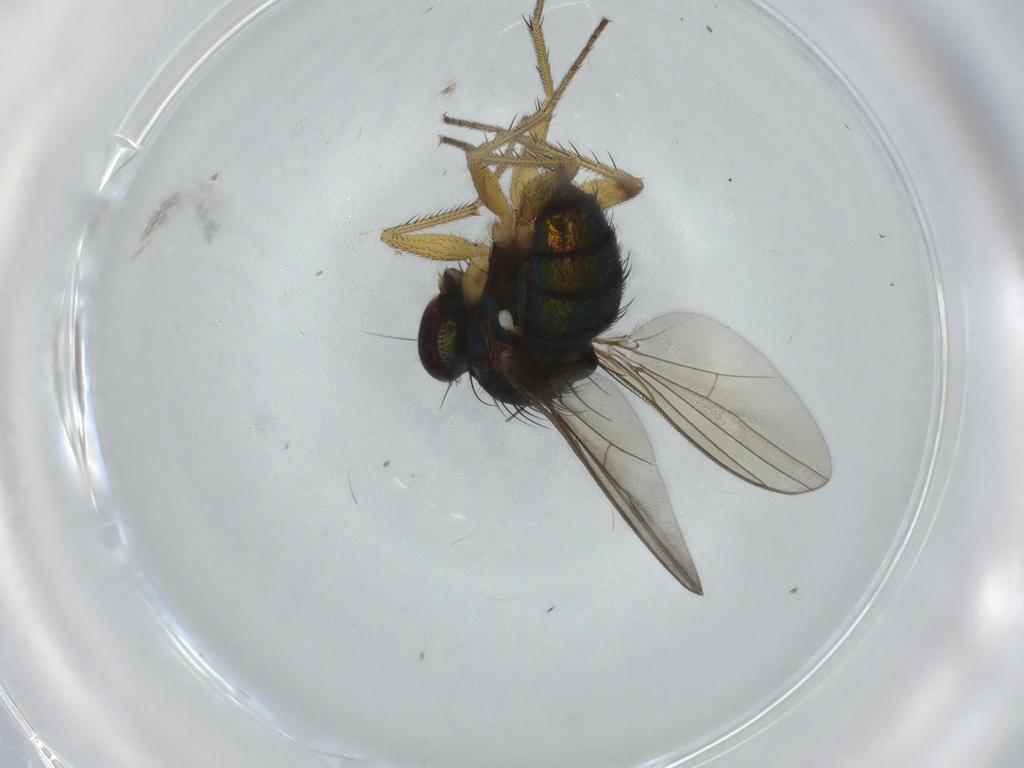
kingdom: Animalia
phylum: Arthropoda
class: Insecta
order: Diptera
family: Dolichopodidae
